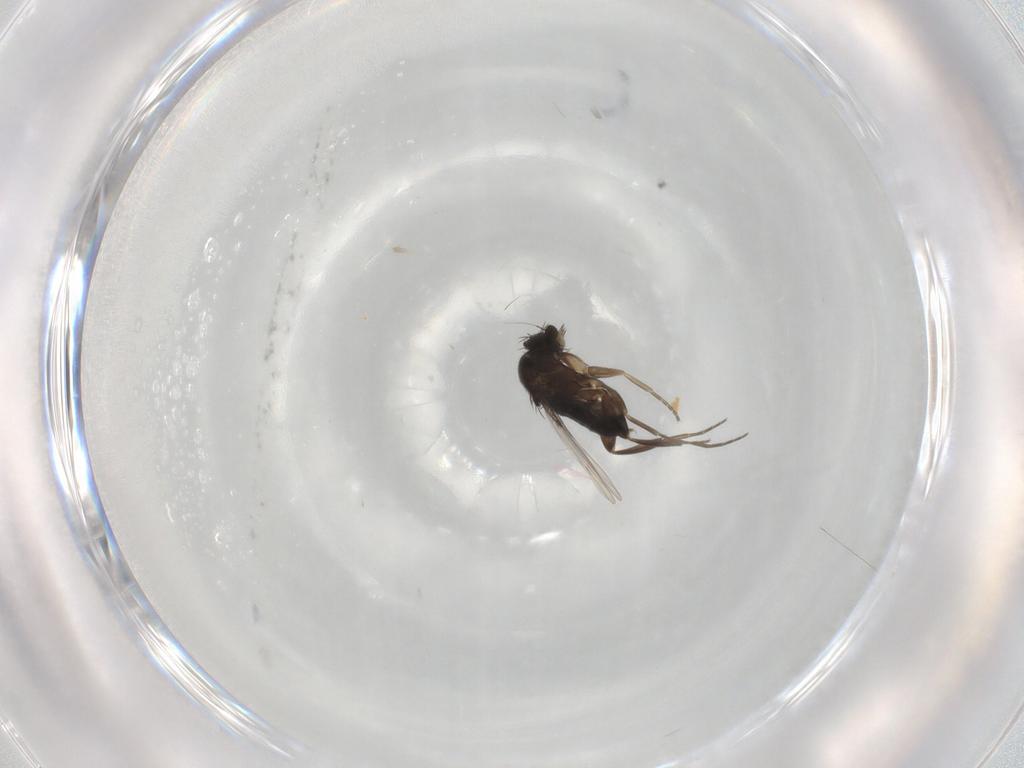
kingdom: Animalia
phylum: Arthropoda
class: Insecta
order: Diptera
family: Phoridae
